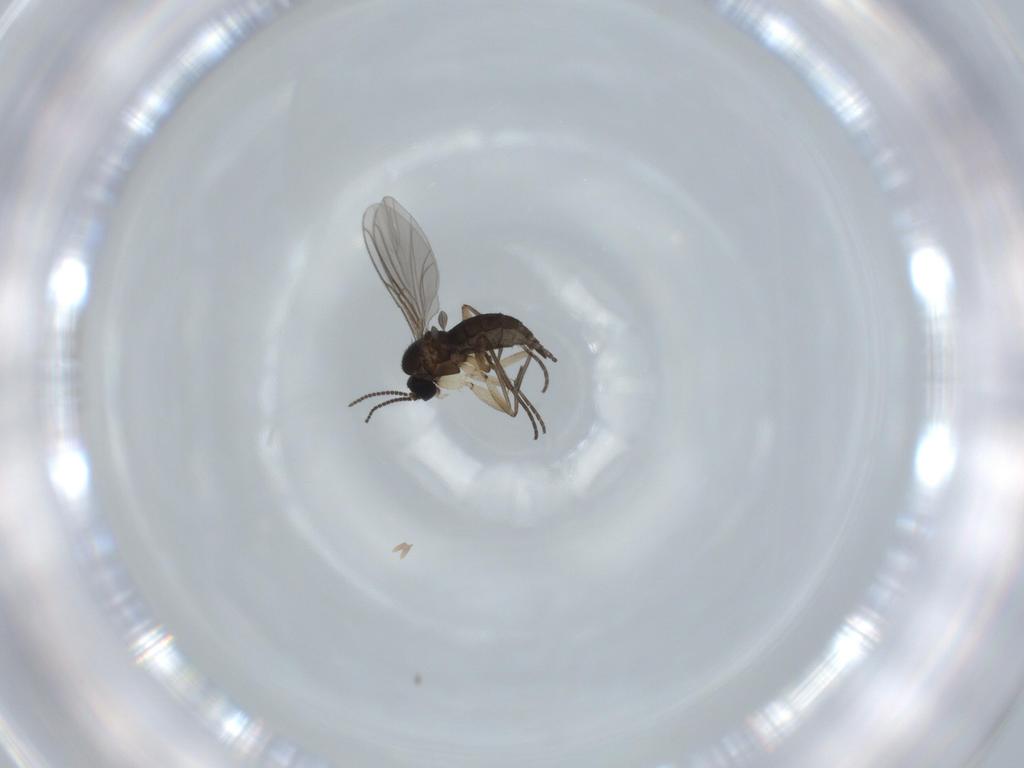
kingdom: Animalia
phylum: Arthropoda
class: Insecta
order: Diptera
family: Sciaridae
